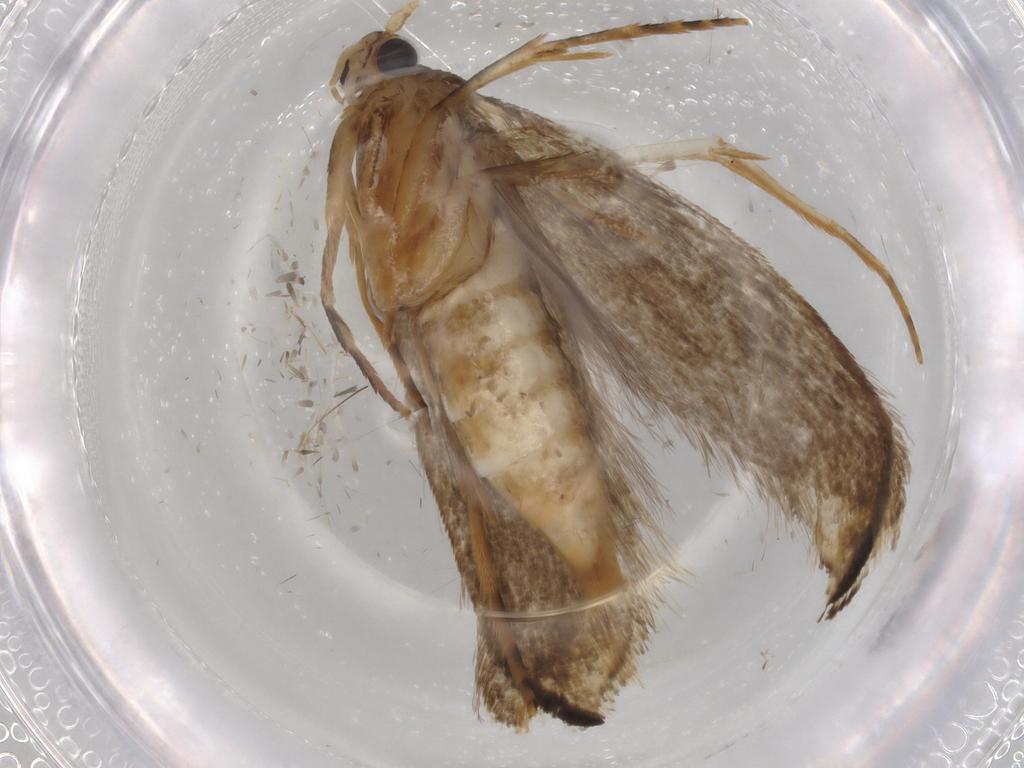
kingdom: Animalia
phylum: Arthropoda
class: Insecta
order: Lepidoptera
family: Tineidae
